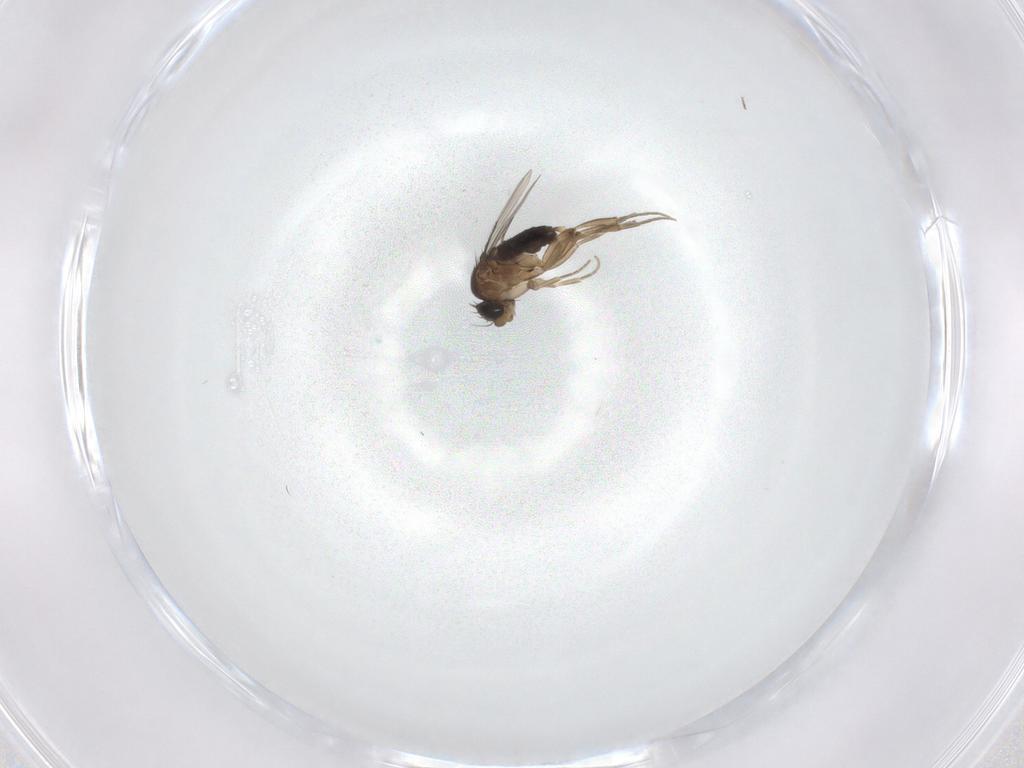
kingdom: Animalia
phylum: Arthropoda
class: Insecta
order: Diptera
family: Phoridae
